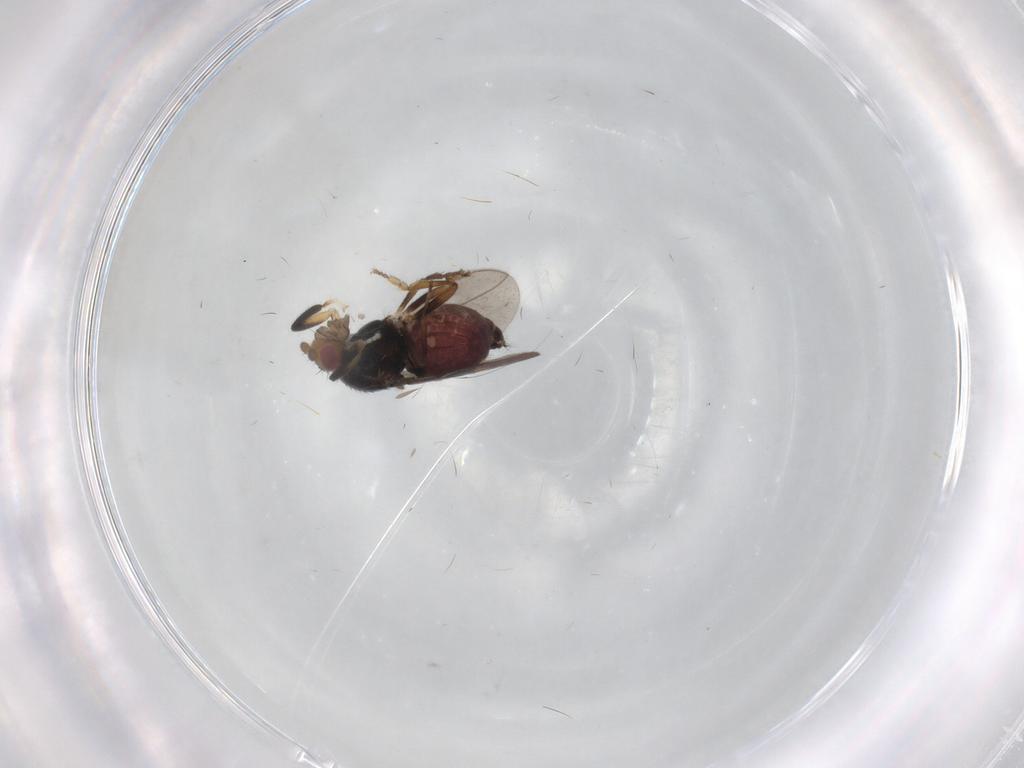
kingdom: Animalia
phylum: Arthropoda
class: Insecta
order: Diptera
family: Sphaeroceridae
